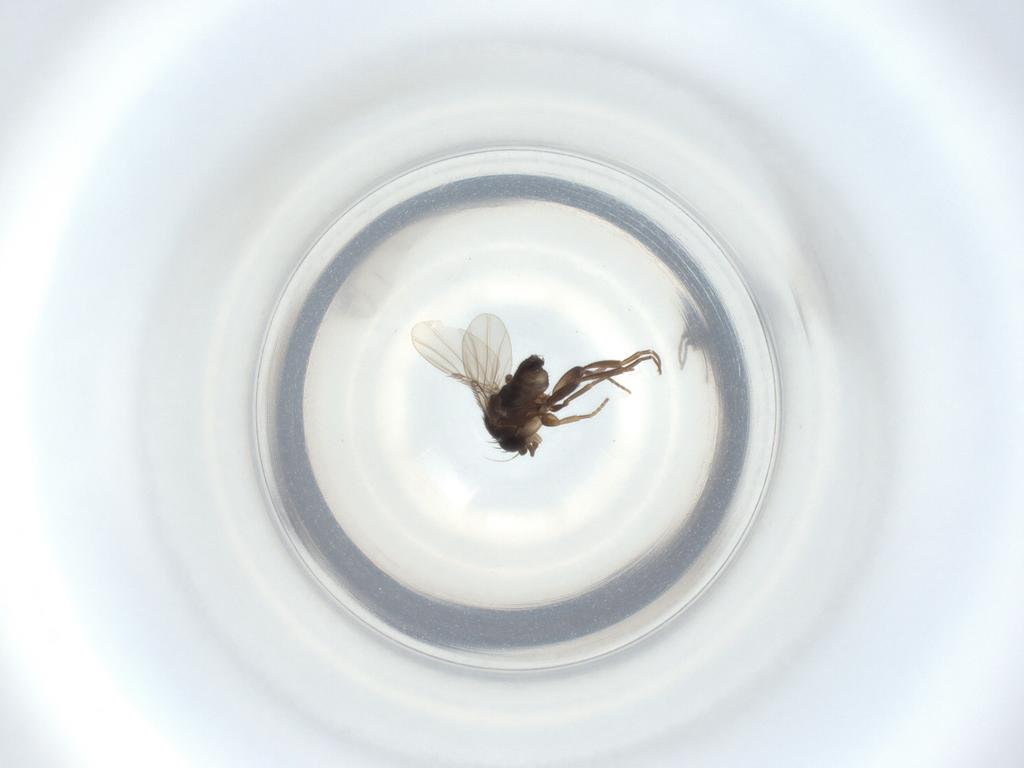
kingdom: Animalia
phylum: Arthropoda
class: Insecta
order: Diptera
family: Phoridae
